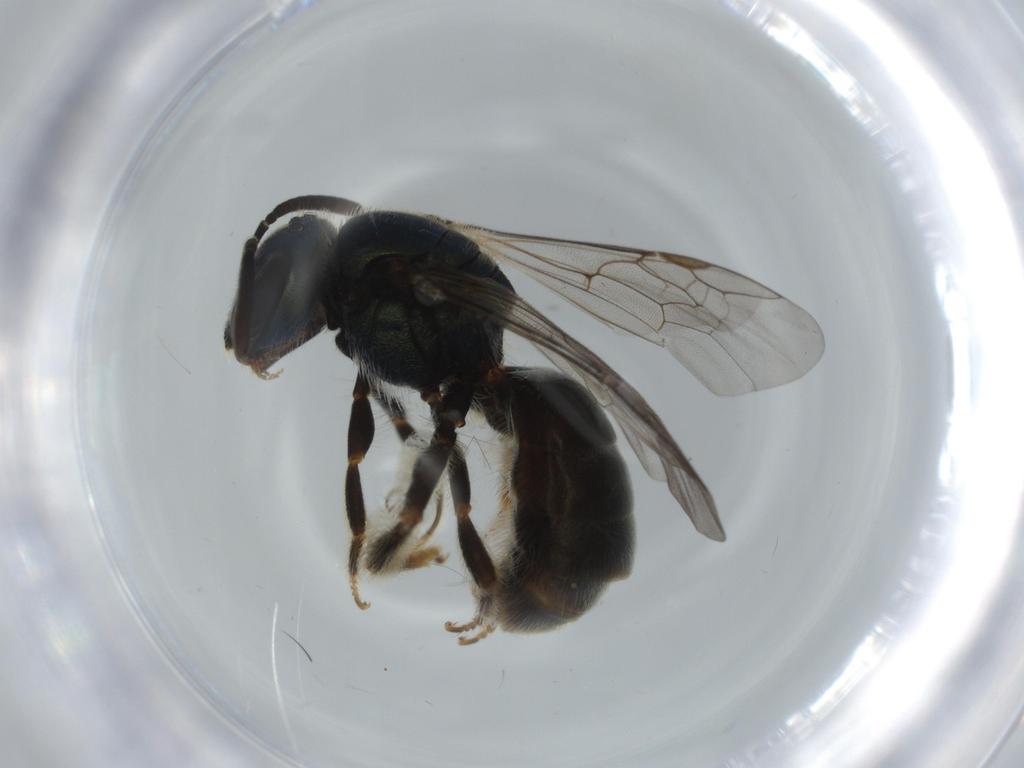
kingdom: Animalia
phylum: Arthropoda
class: Insecta
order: Hymenoptera
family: Halictidae
